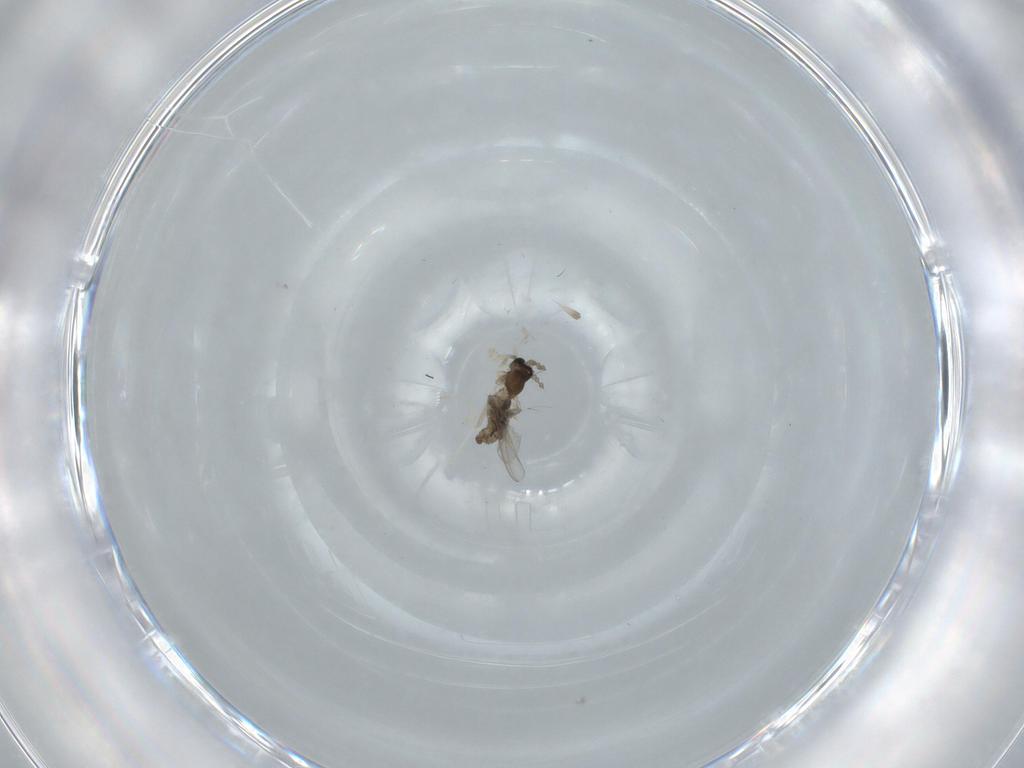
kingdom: Animalia
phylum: Arthropoda
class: Insecta
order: Diptera
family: Cecidomyiidae
